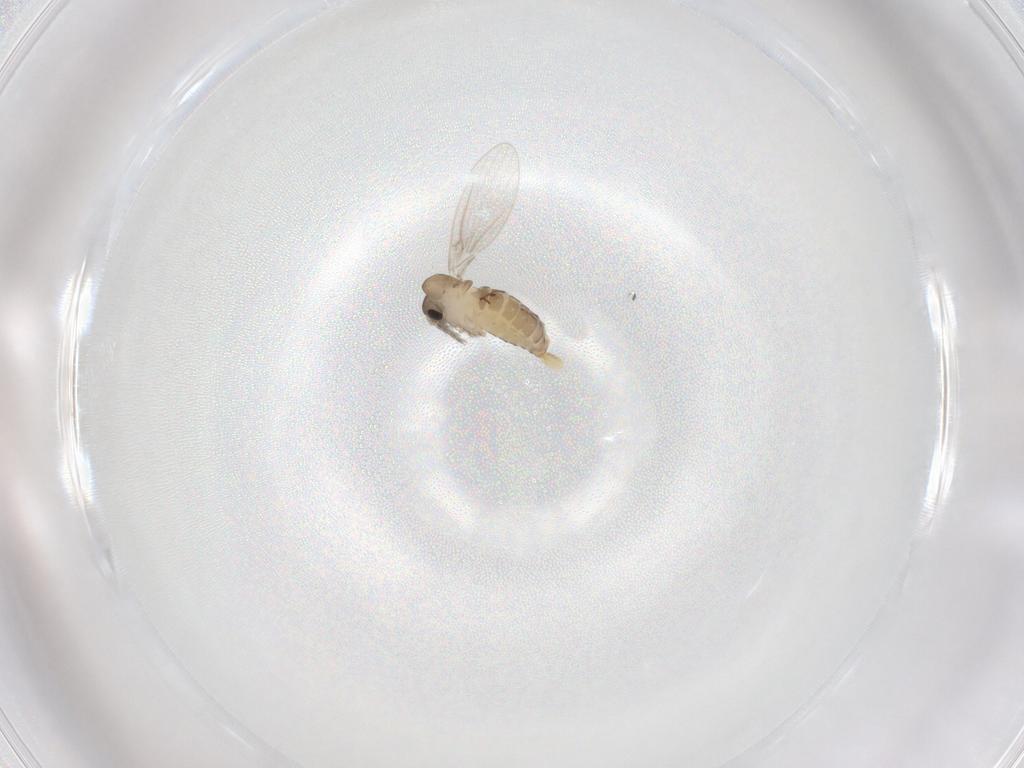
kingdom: Animalia
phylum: Arthropoda
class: Insecta
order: Diptera
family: Psychodidae
